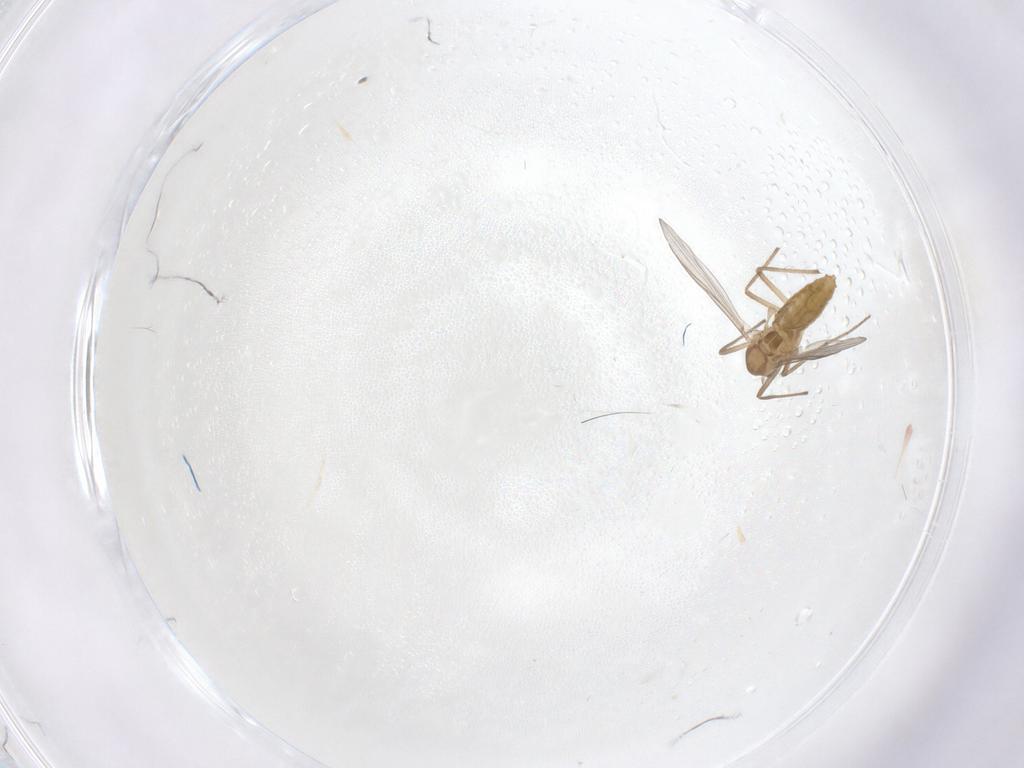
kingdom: Animalia
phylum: Arthropoda
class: Insecta
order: Diptera
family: Chironomidae
